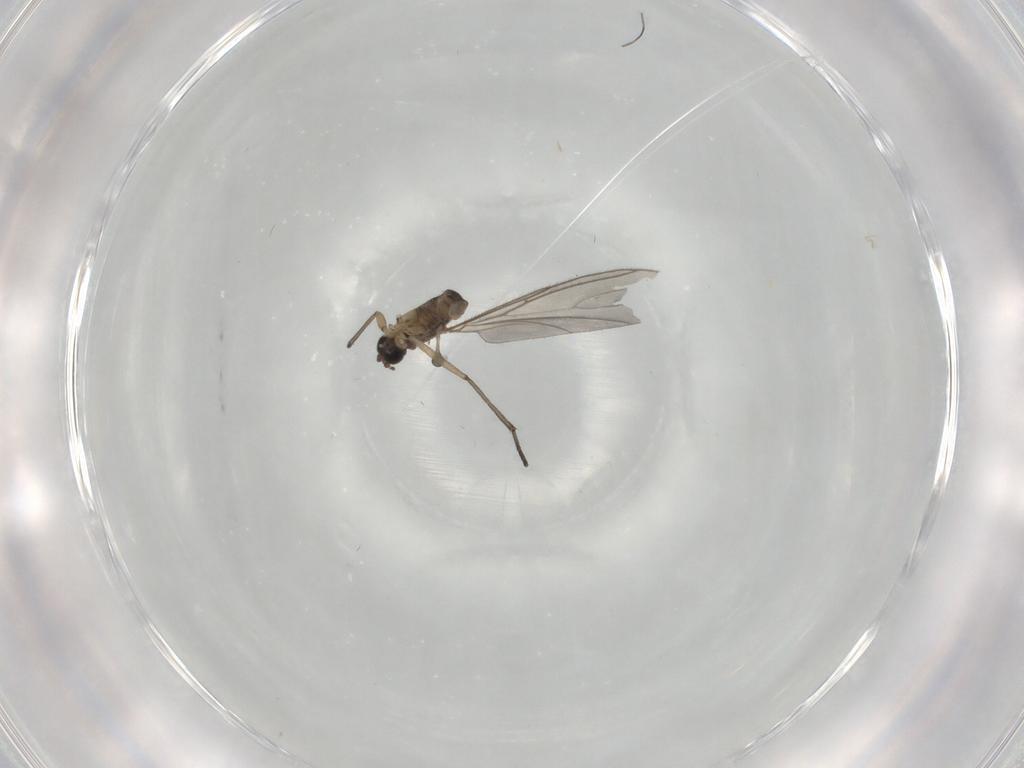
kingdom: Animalia
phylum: Arthropoda
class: Insecta
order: Diptera
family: Sciaridae
